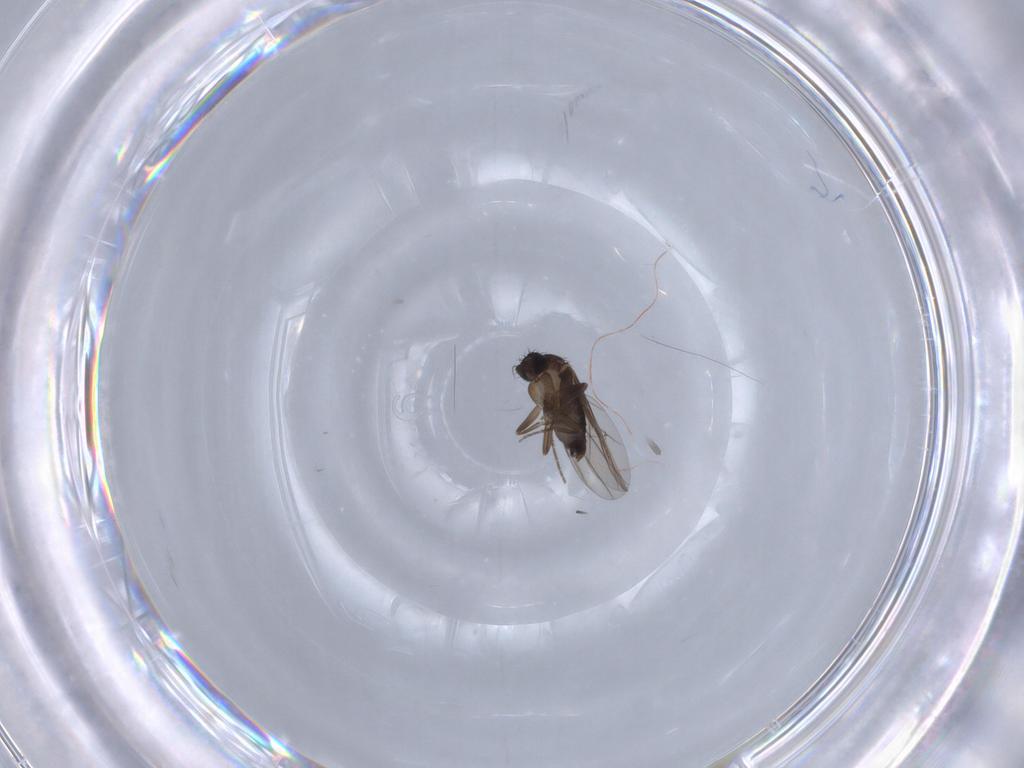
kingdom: Animalia
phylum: Arthropoda
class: Insecta
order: Diptera
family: Phoridae
